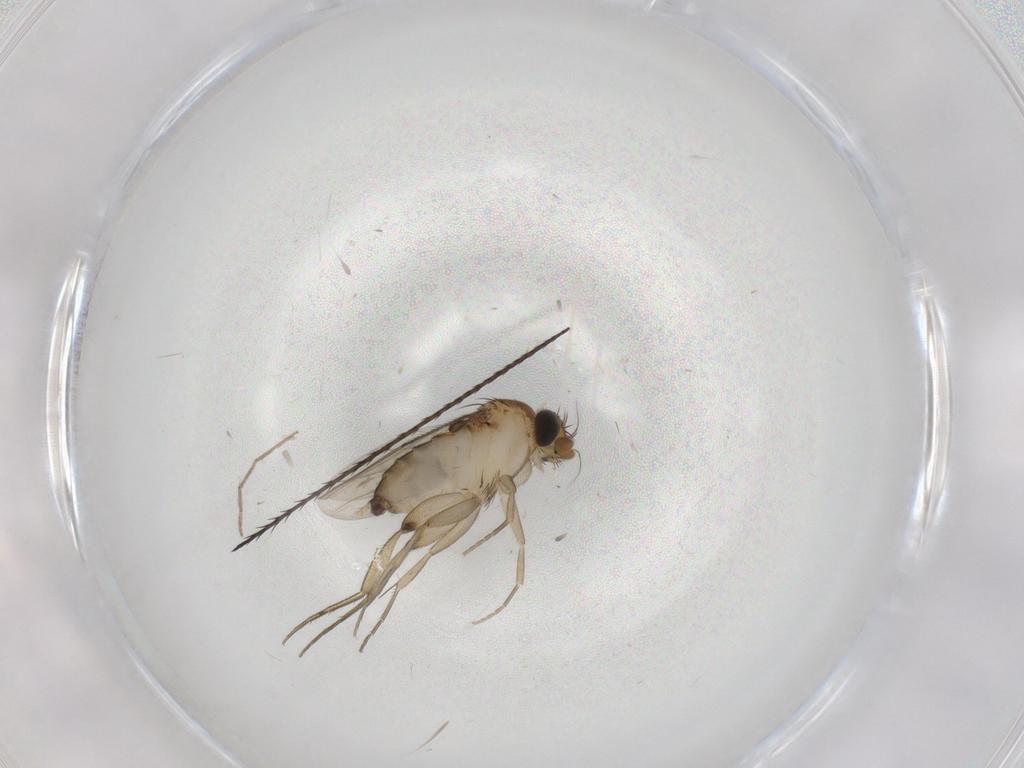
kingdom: Animalia
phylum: Arthropoda
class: Insecta
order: Diptera
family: Phoridae
